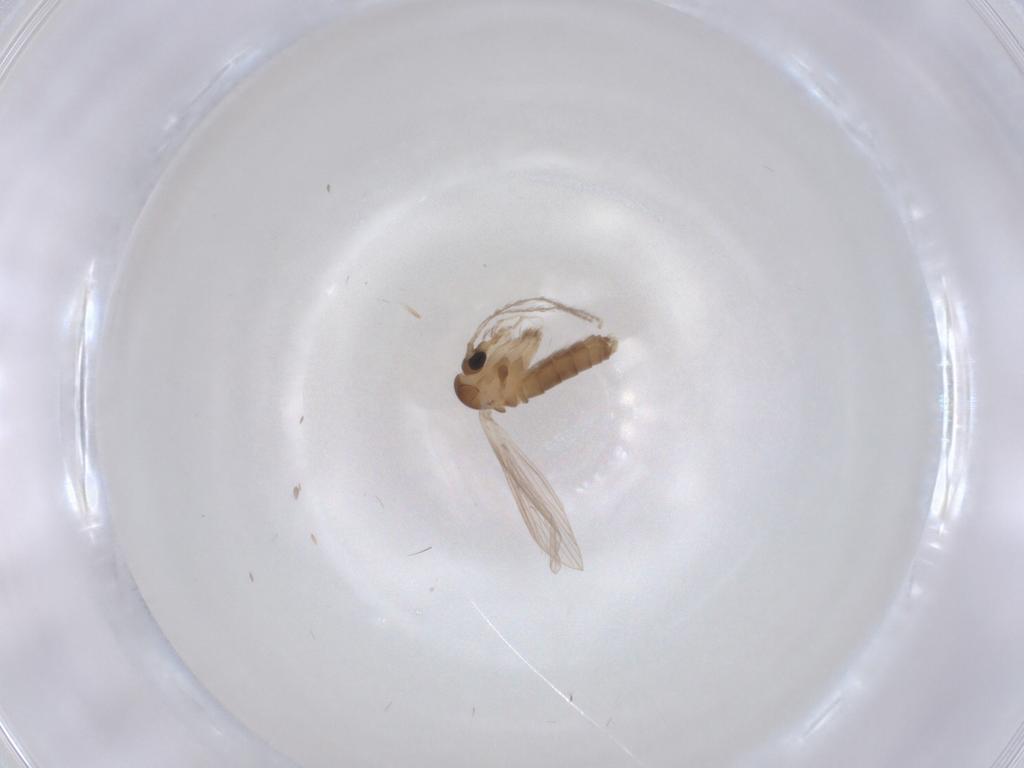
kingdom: Animalia
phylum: Arthropoda
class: Insecta
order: Diptera
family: Psychodidae
